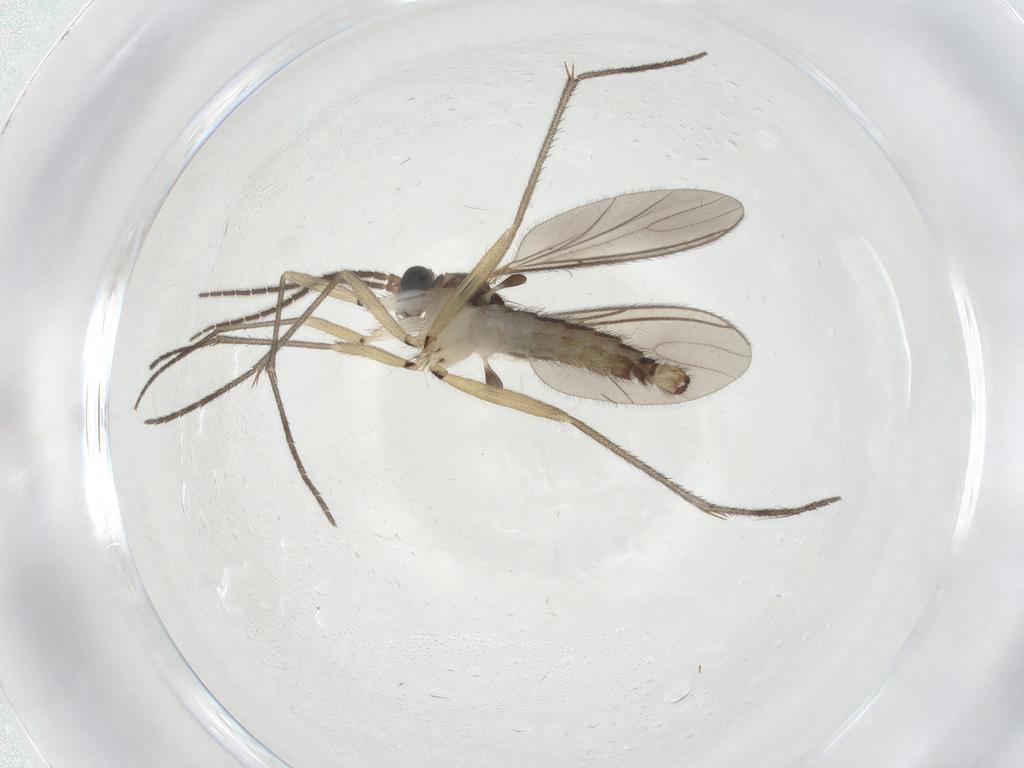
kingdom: Animalia
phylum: Arthropoda
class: Insecta
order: Diptera
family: Sciaridae
